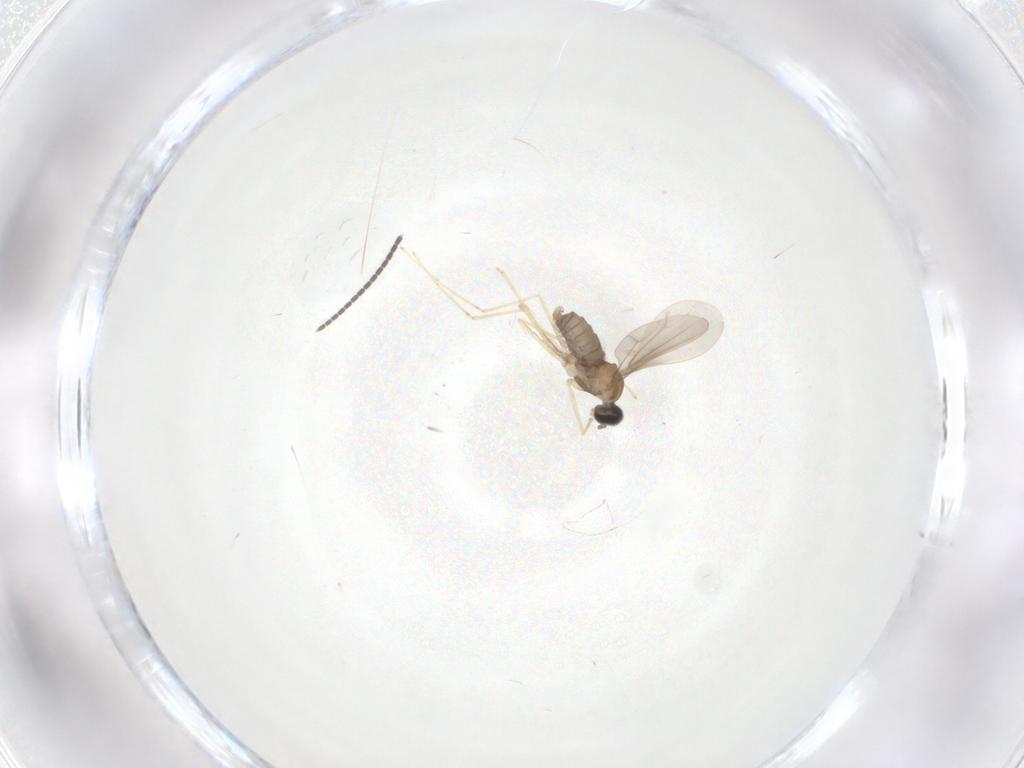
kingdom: Animalia
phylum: Arthropoda
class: Insecta
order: Diptera
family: Cecidomyiidae
